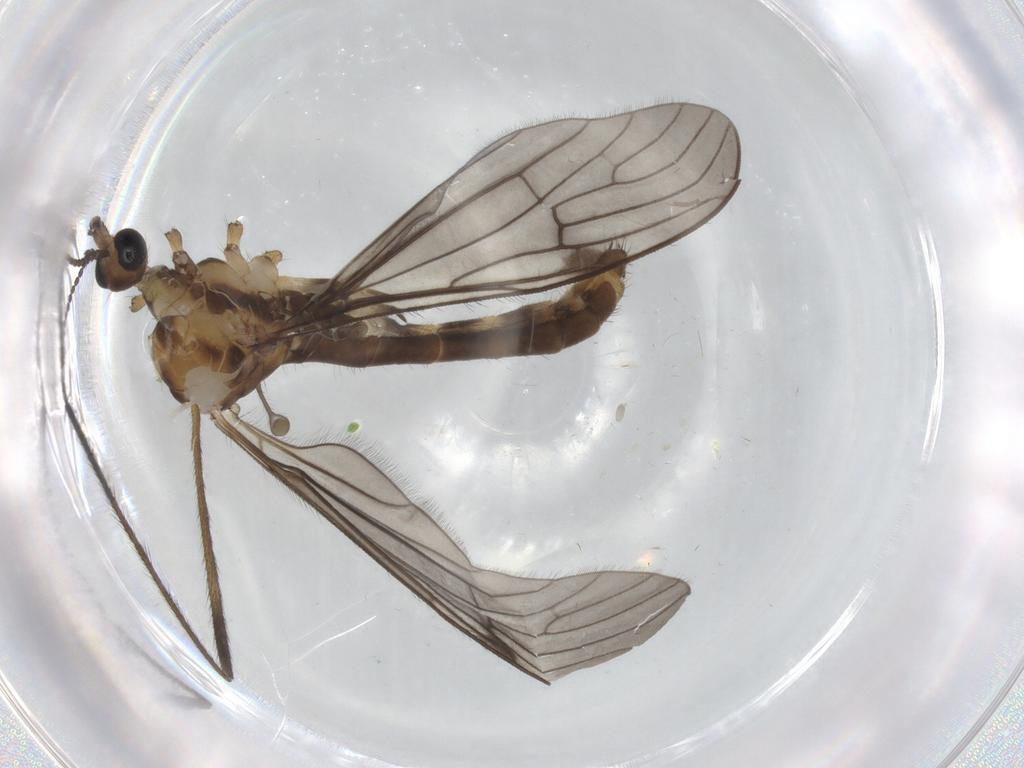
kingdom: Animalia
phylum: Arthropoda
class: Insecta
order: Diptera
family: Limoniidae
